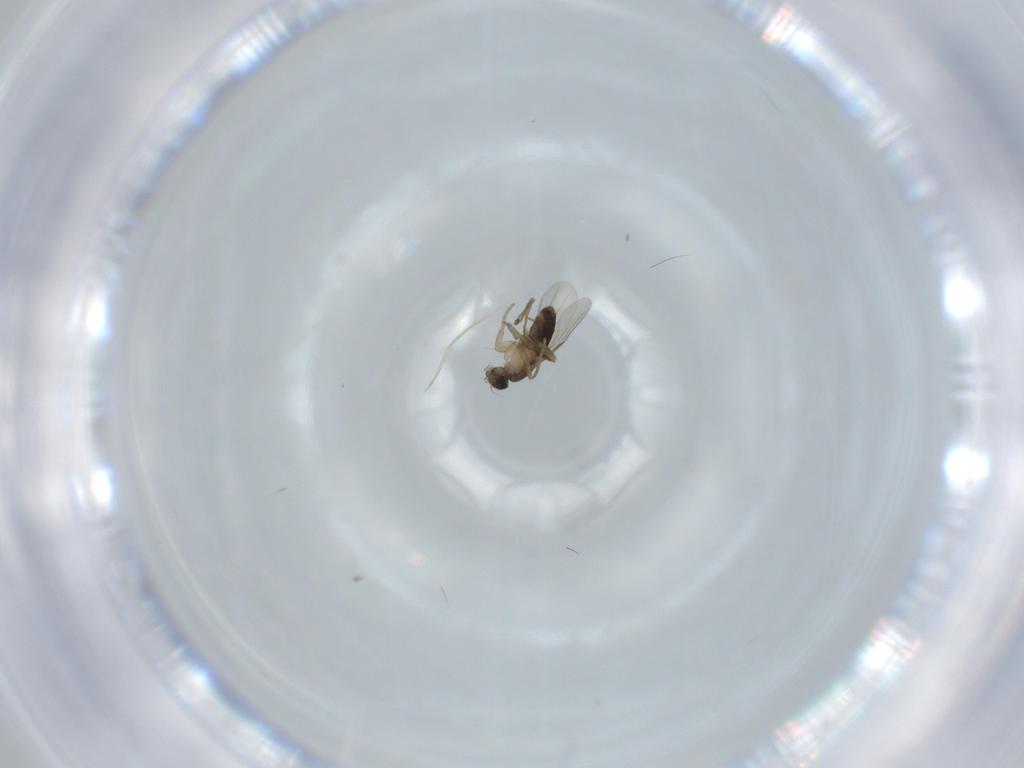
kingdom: Animalia
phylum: Arthropoda
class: Insecta
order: Diptera
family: Phoridae
